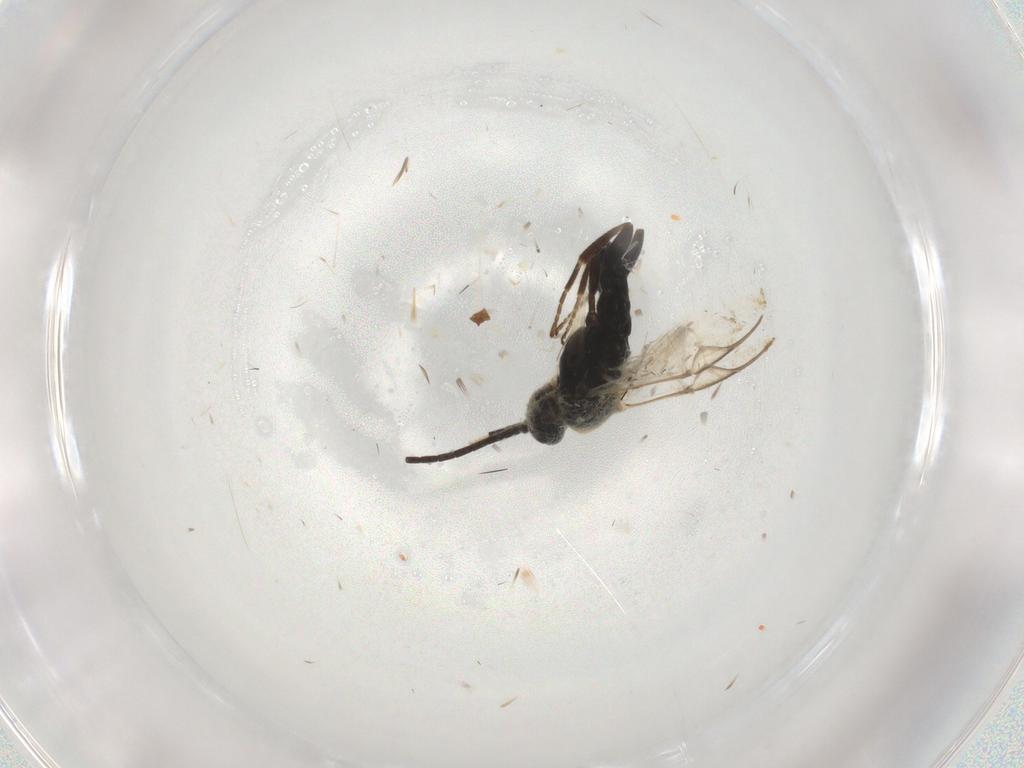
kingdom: Animalia
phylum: Arthropoda
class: Insecta
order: Hymenoptera
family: Braconidae
